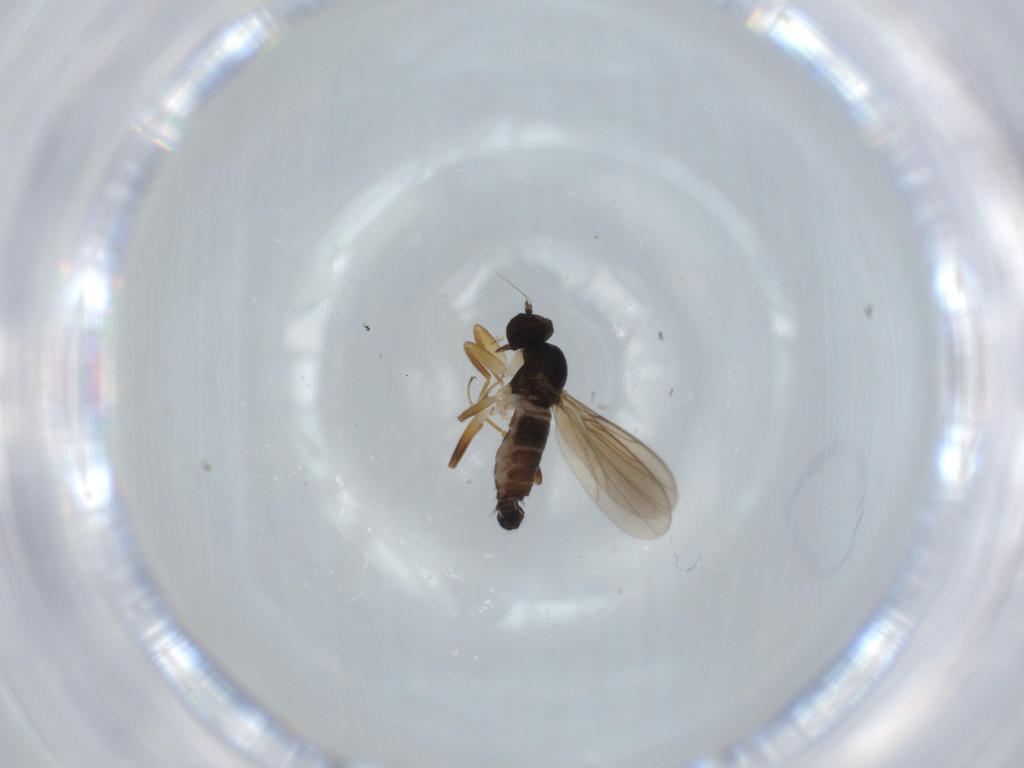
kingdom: Animalia
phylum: Arthropoda
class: Insecta
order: Diptera
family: Hybotidae
